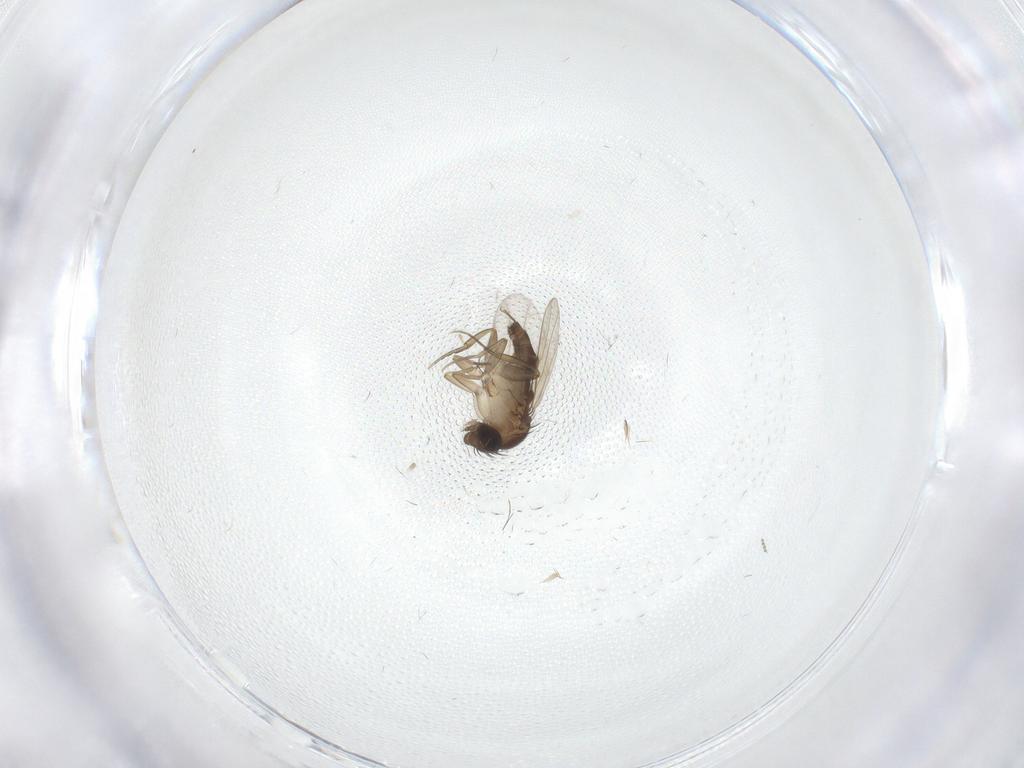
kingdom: Animalia
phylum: Arthropoda
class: Insecta
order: Diptera
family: Phoridae
